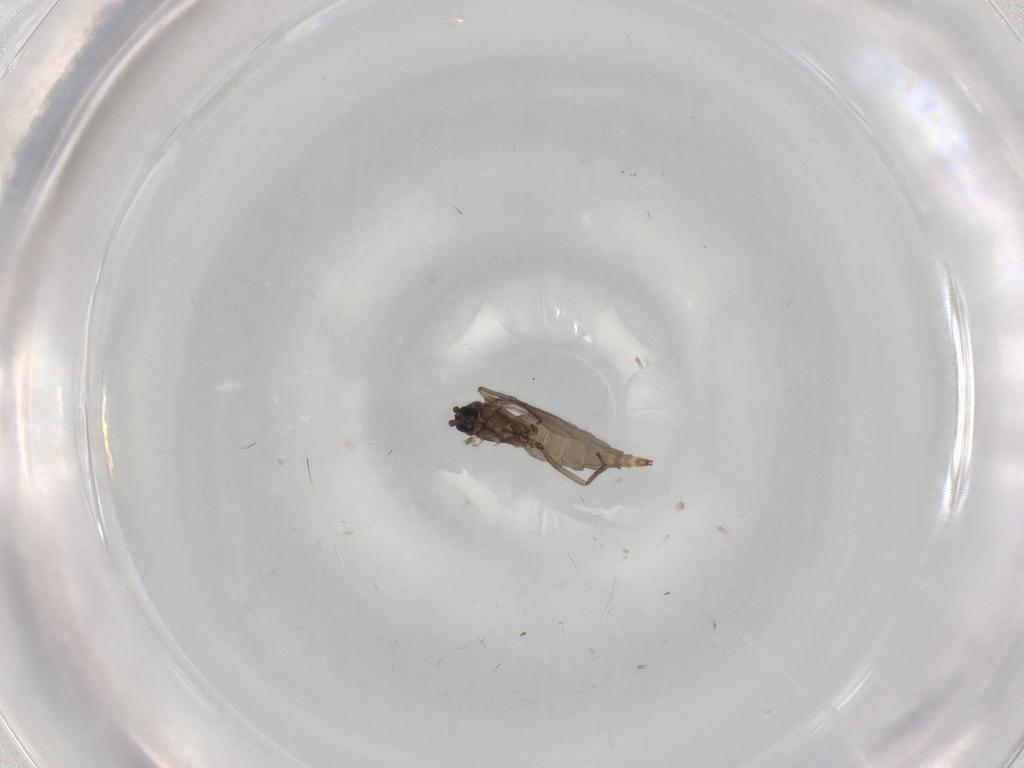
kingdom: Animalia
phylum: Arthropoda
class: Insecta
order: Diptera
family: Sciaridae
